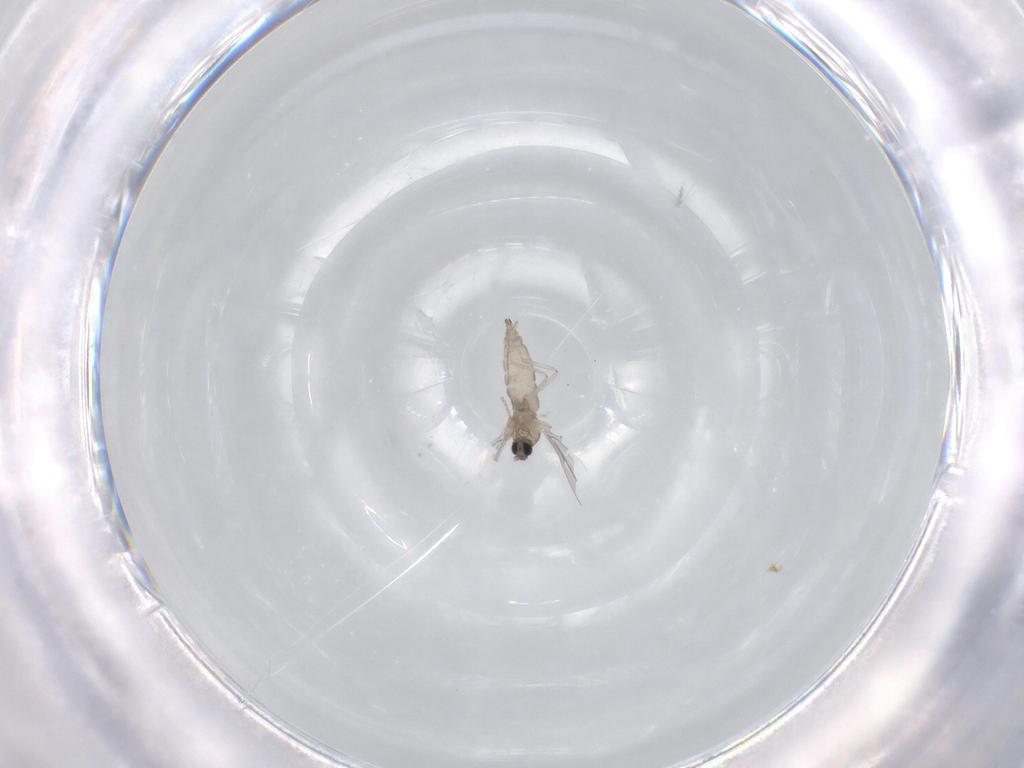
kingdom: Animalia
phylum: Arthropoda
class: Insecta
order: Diptera
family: Cecidomyiidae
